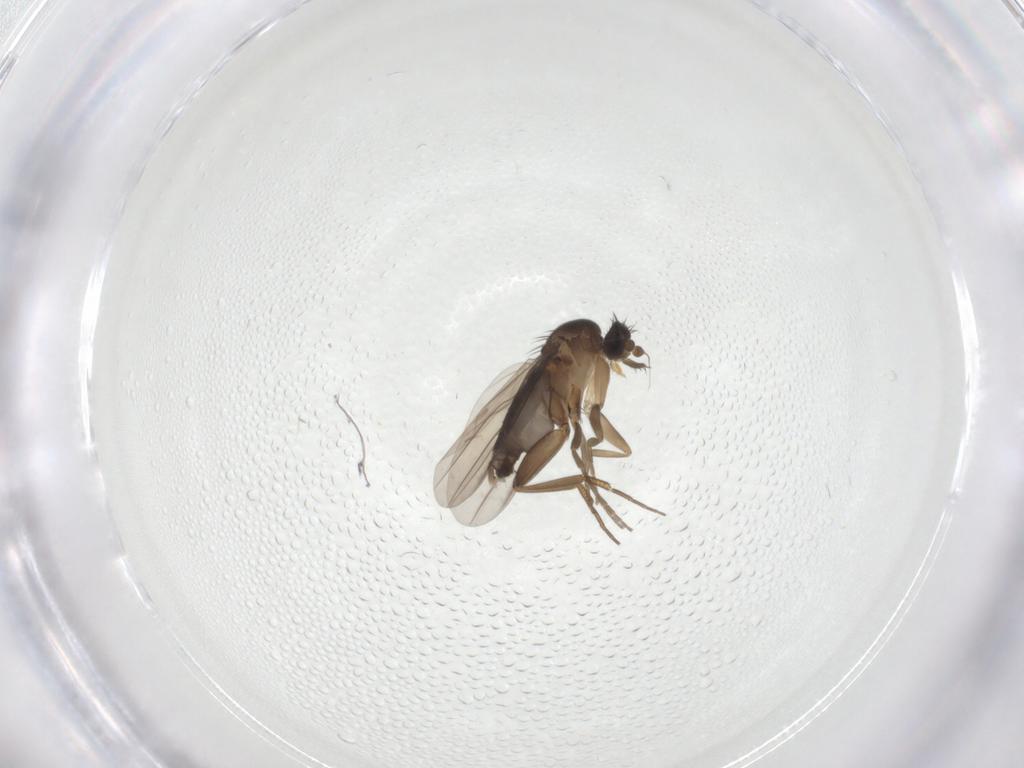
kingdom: Animalia
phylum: Arthropoda
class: Insecta
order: Diptera
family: Phoridae
